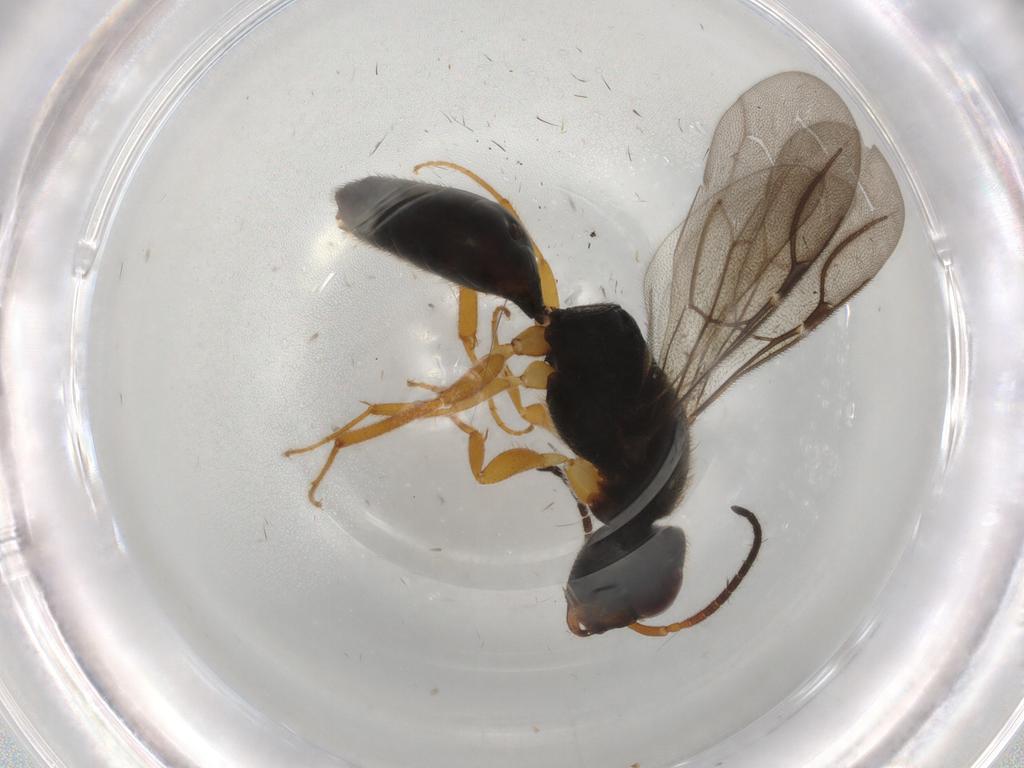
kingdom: Animalia
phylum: Arthropoda
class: Insecta
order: Hymenoptera
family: Bethylidae
